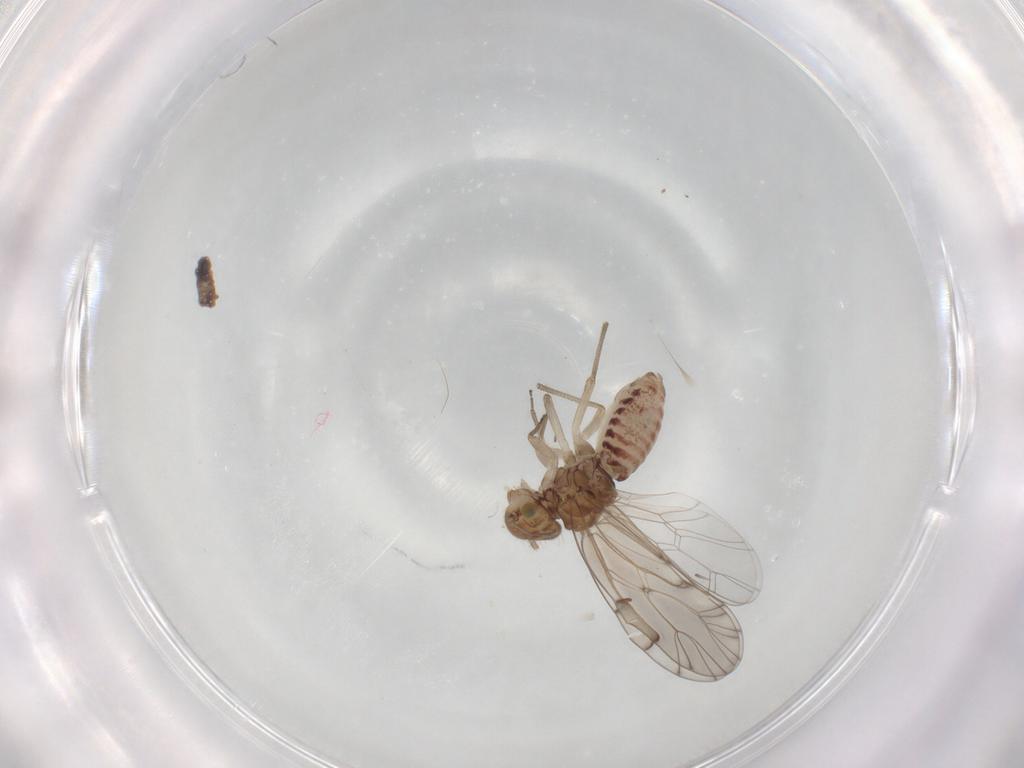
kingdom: Animalia
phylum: Arthropoda
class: Insecta
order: Diptera
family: Ceratopogonidae
